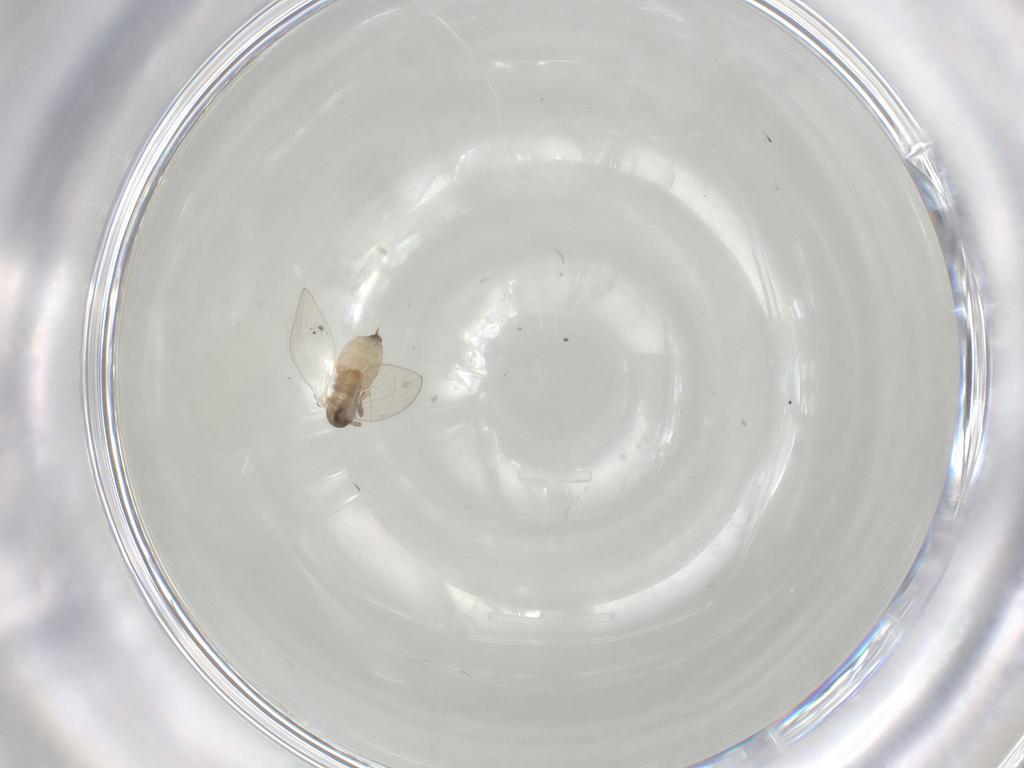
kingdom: Animalia
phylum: Arthropoda
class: Insecta
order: Diptera
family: Psychodidae
